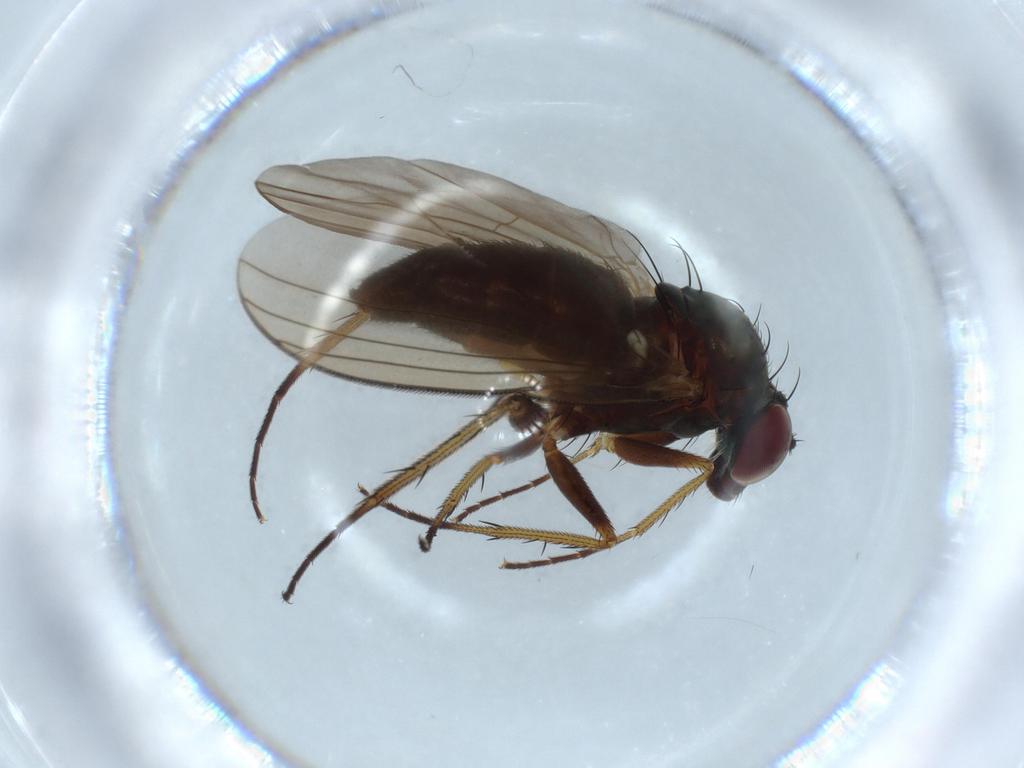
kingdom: Animalia
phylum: Arthropoda
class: Insecta
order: Diptera
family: Dolichopodidae
